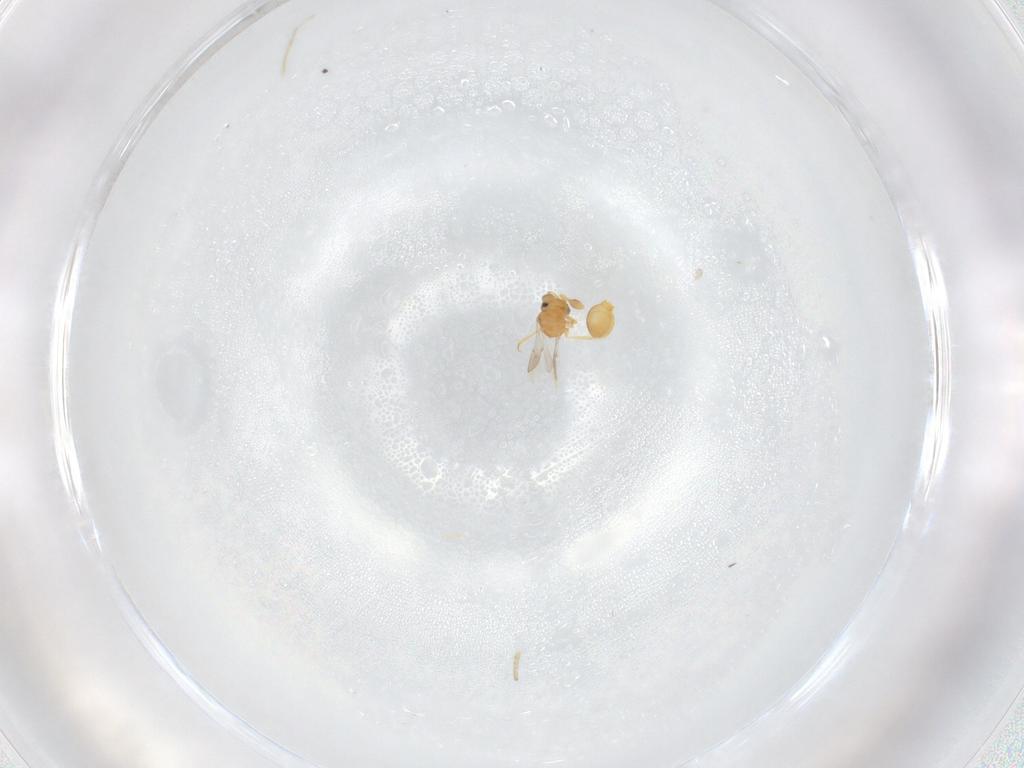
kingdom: Animalia
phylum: Arthropoda
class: Insecta
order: Hymenoptera
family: Scelionidae
